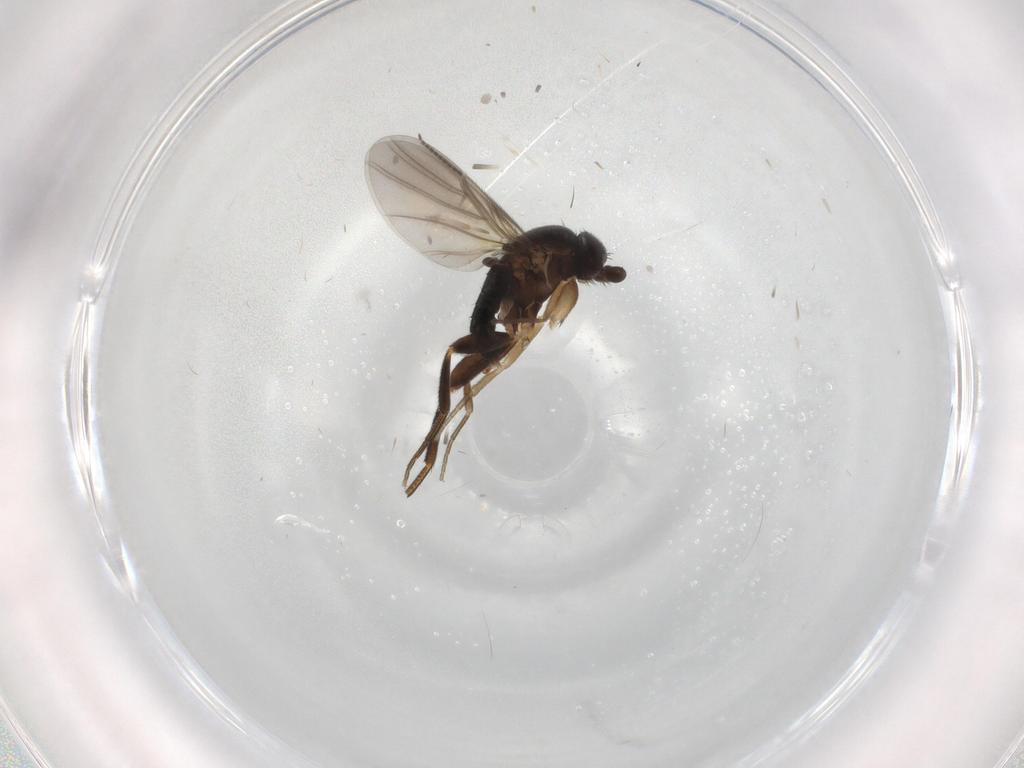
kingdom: Animalia
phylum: Arthropoda
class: Insecta
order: Diptera
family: Phoridae
